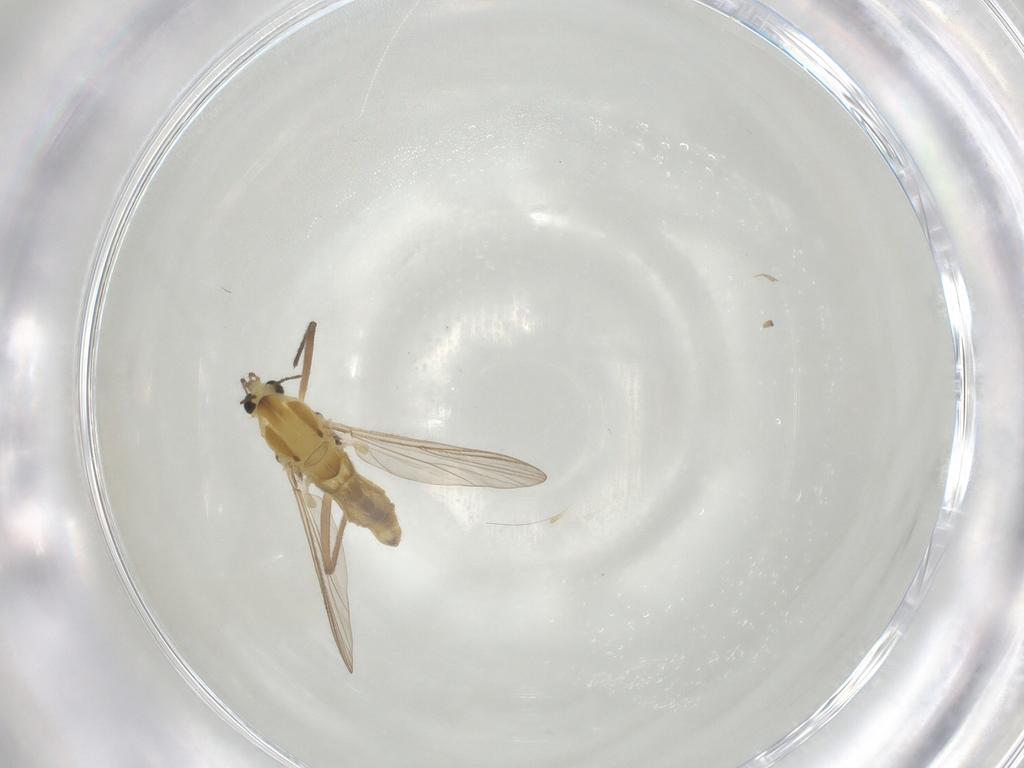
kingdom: Animalia
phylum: Arthropoda
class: Insecta
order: Diptera
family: Chironomidae
